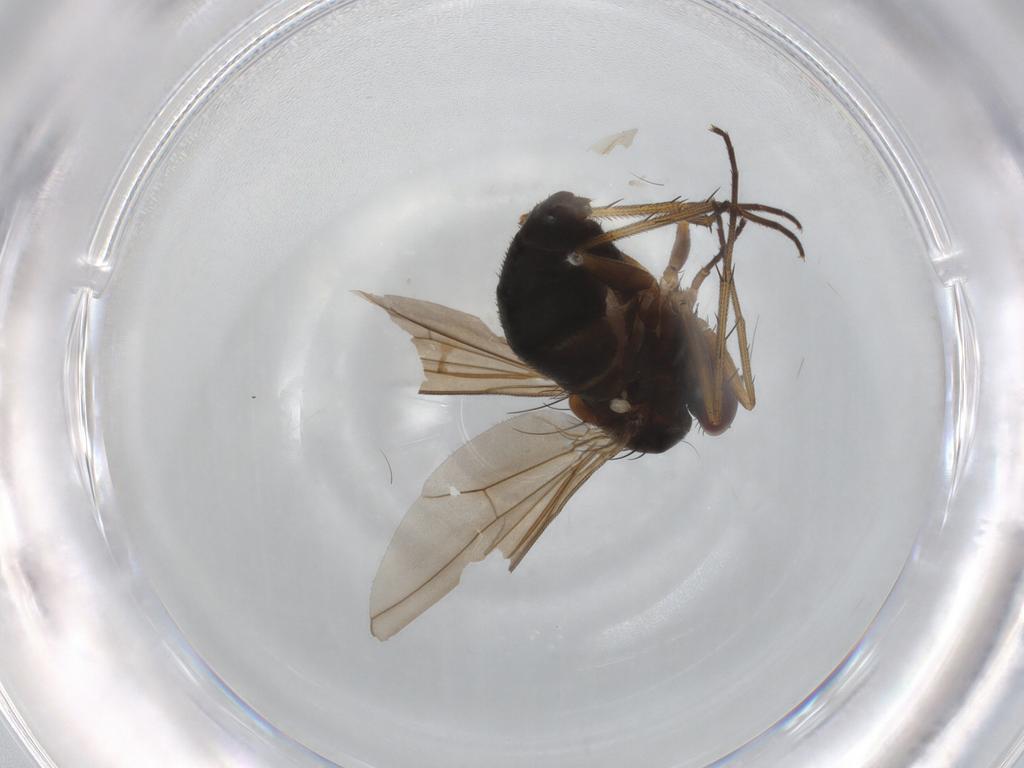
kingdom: Animalia
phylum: Arthropoda
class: Insecta
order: Diptera
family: Dolichopodidae
